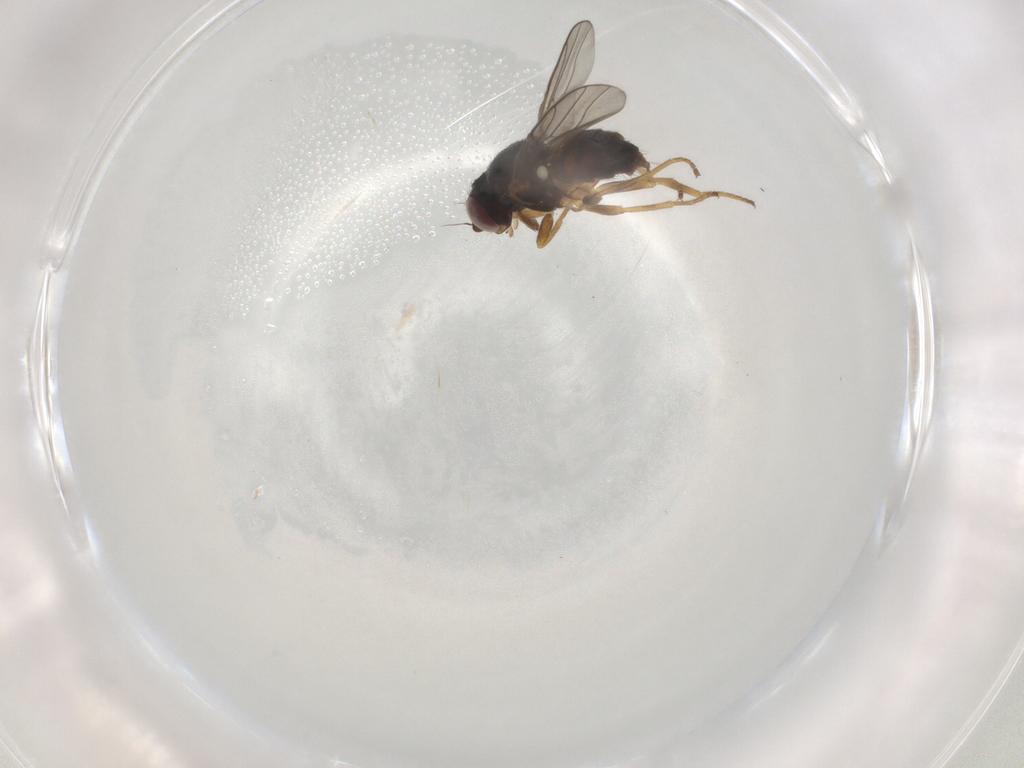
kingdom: Animalia
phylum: Arthropoda
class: Insecta
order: Diptera
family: Chloropidae
